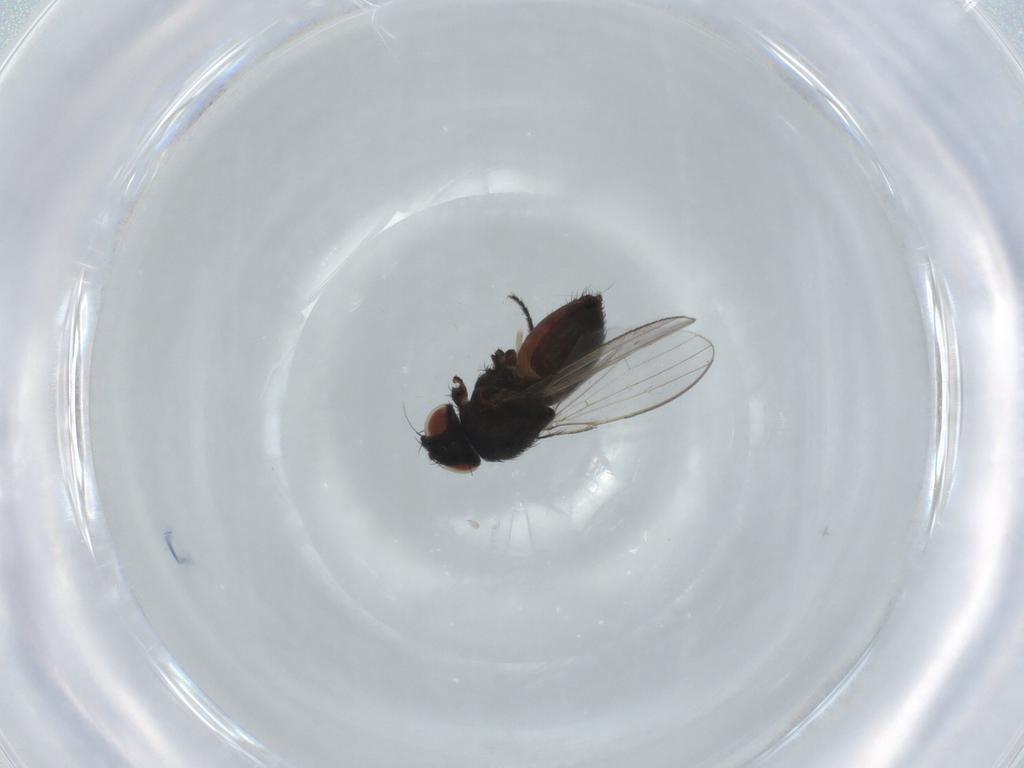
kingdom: Animalia
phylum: Arthropoda
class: Insecta
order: Diptera
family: Milichiidae
